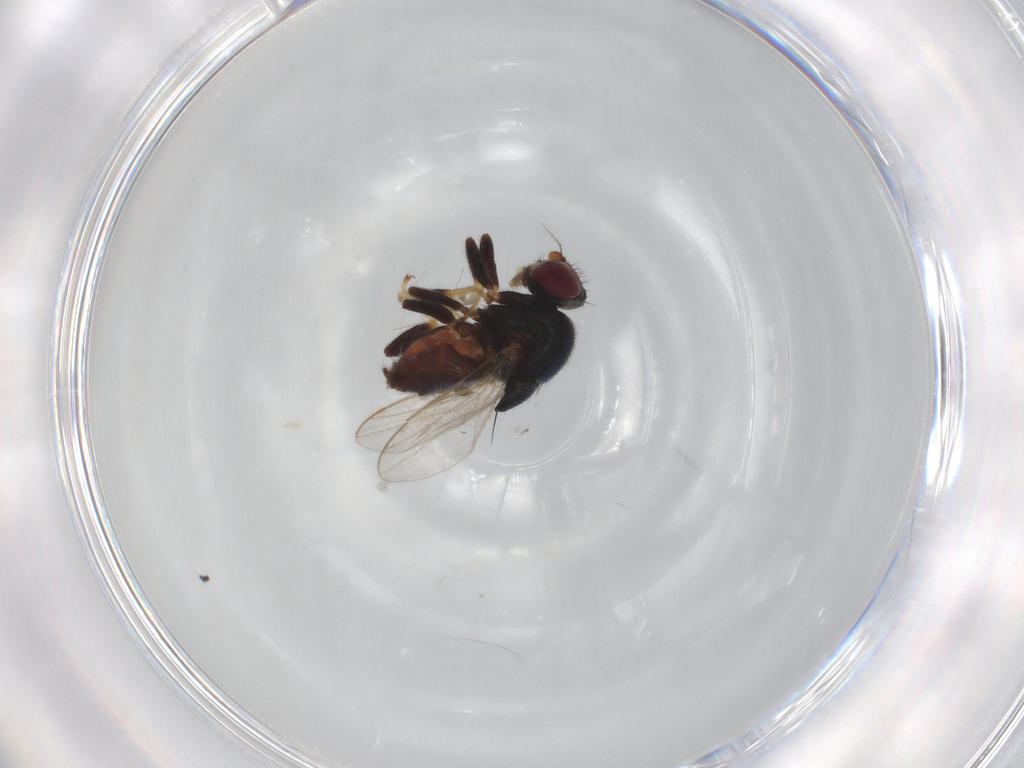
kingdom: Animalia
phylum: Arthropoda
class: Insecta
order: Diptera
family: Chloropidae
